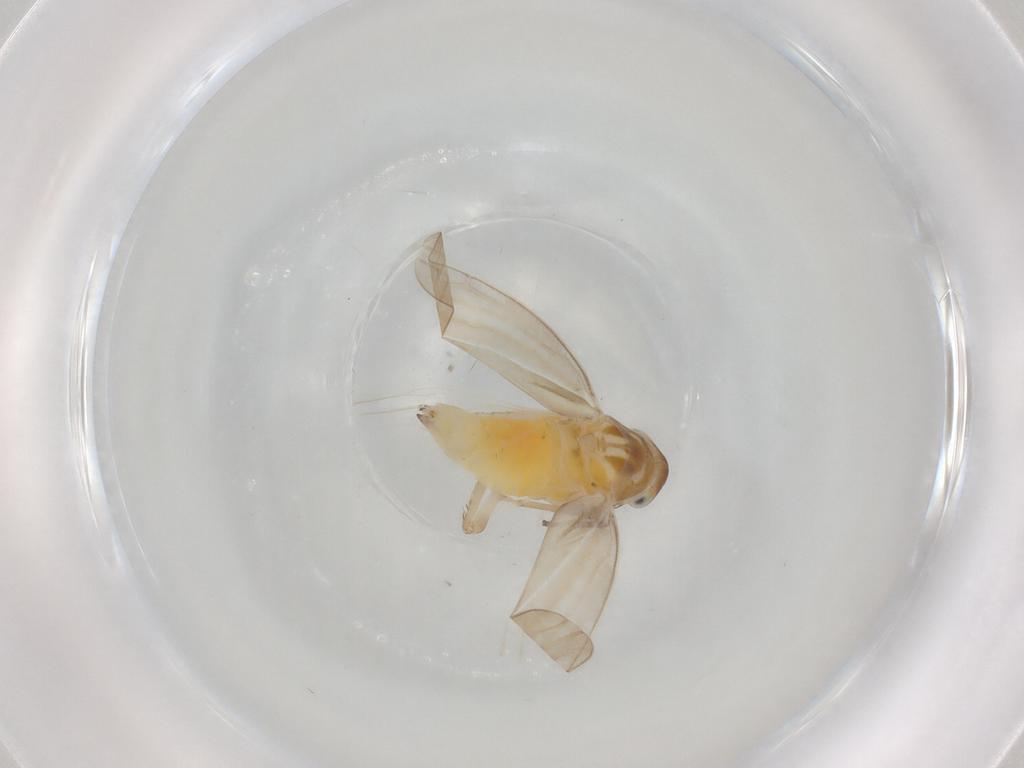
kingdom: Animalia
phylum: Arthropoda
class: Insecta
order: Hemiptera
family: Cicadellidae
